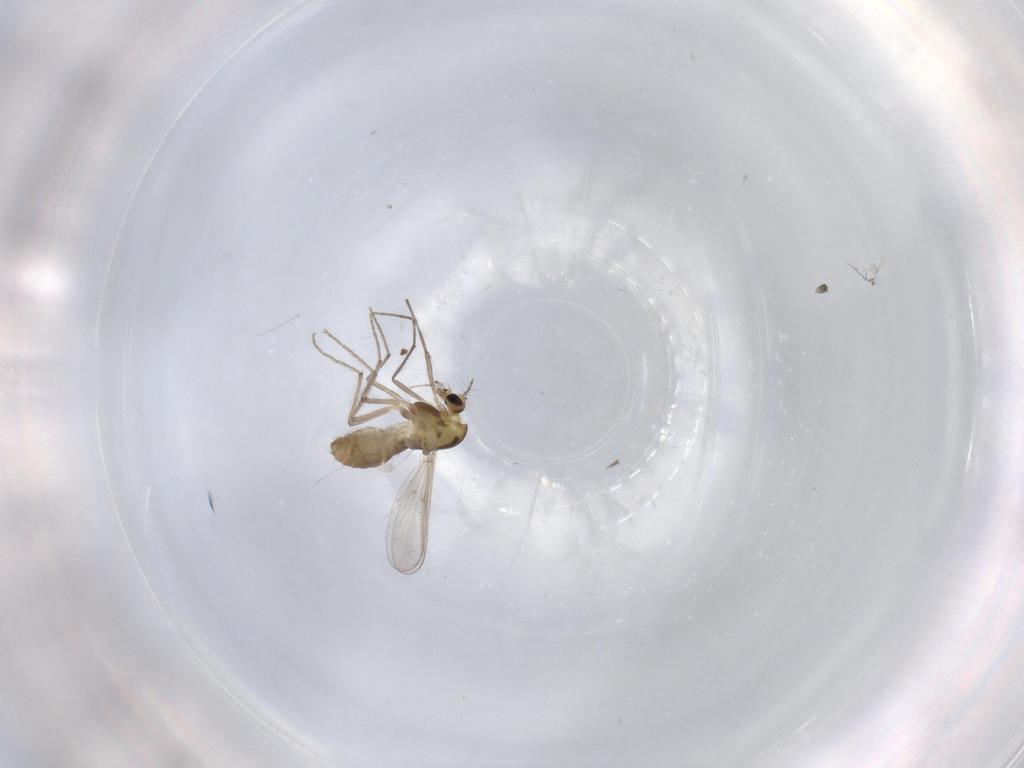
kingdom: Animalia
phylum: Arthropoda
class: Insecta
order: Diptera
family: Chironomidae
